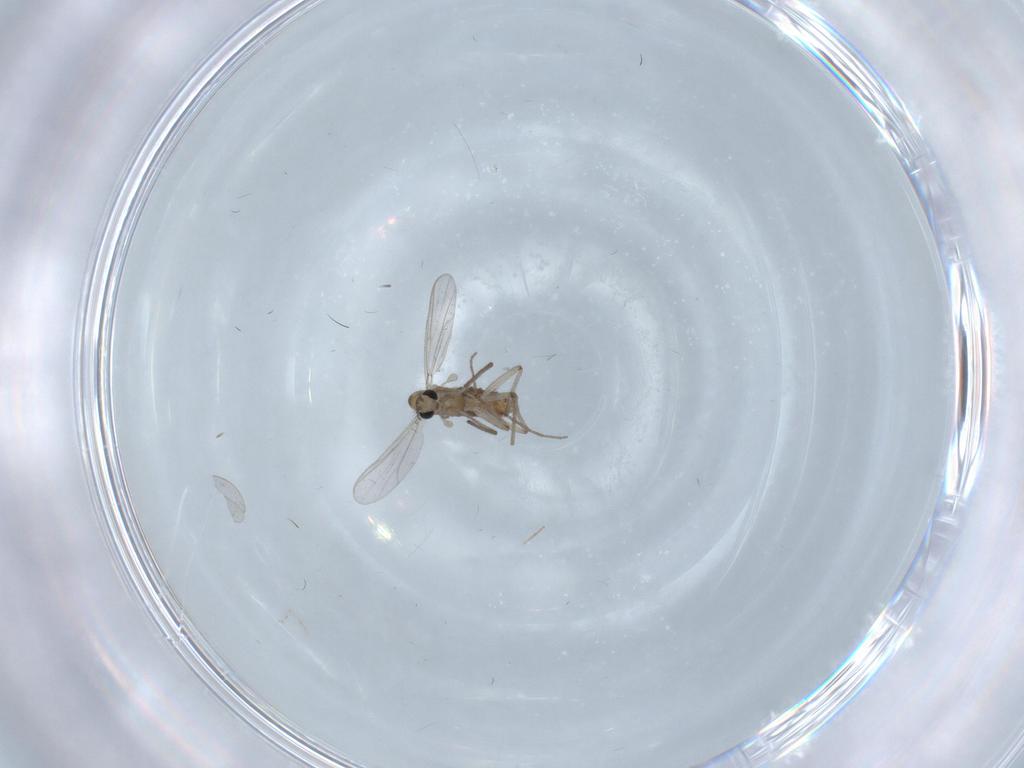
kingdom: Animalia
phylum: Arthropoda
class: Insecta
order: Diptera
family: Chironomidae
